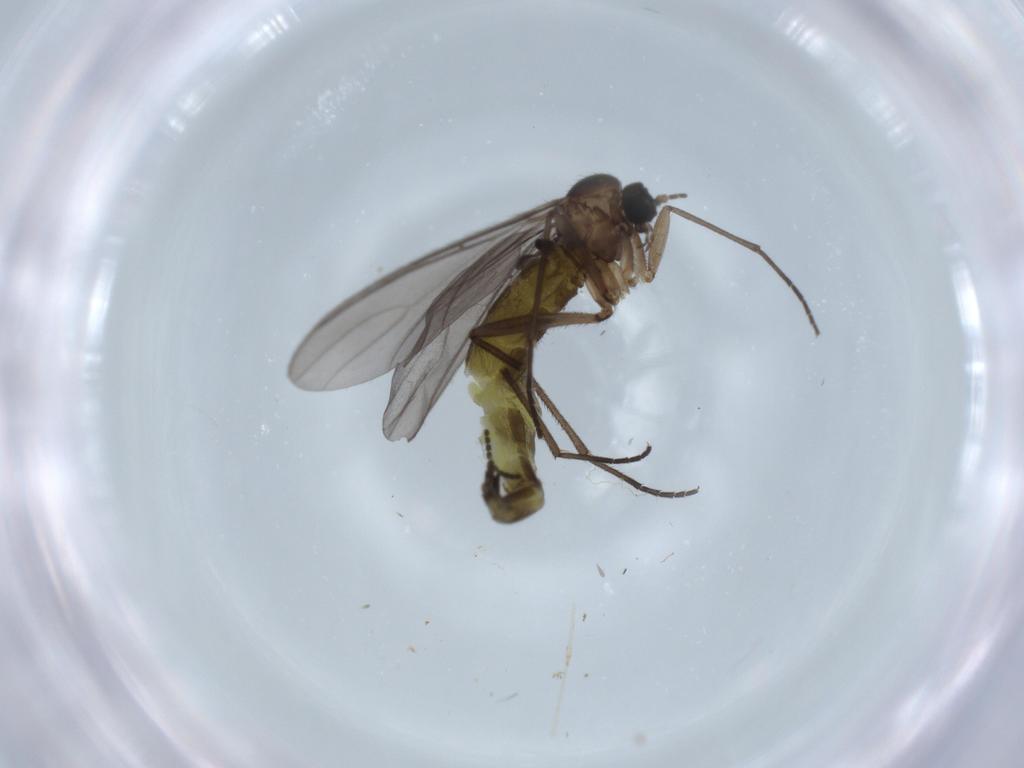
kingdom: Animalia
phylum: Arthropoda
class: Insecta
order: Diptera
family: Sciaridae
